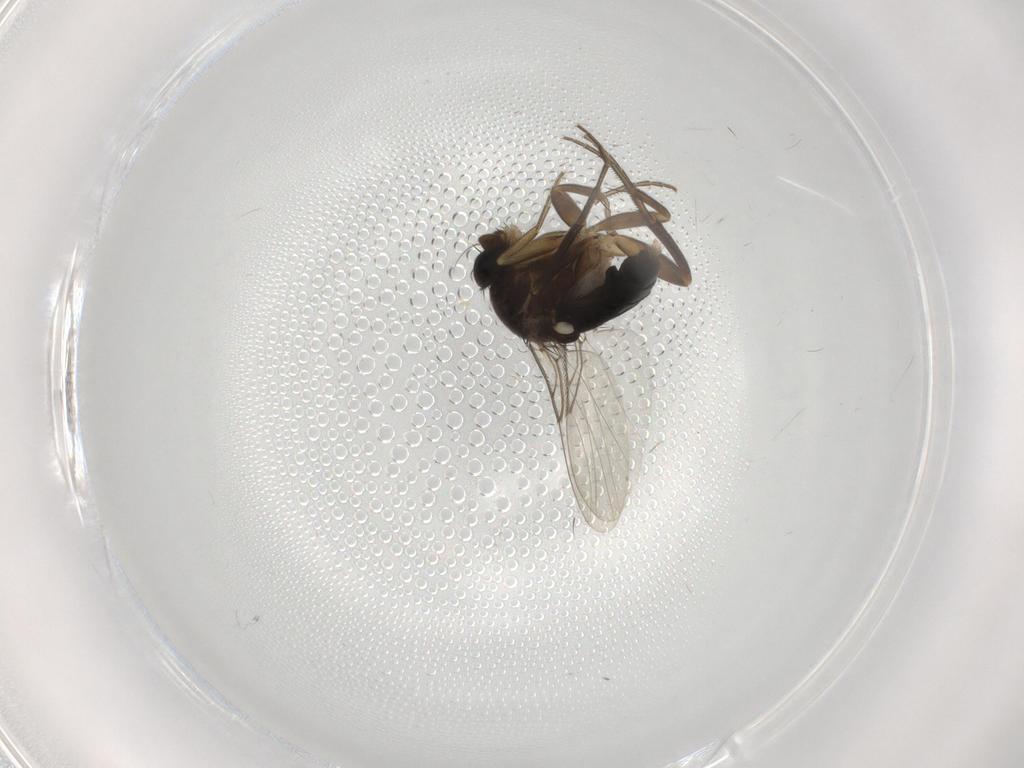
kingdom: Animalia
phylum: Arthropoda
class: Insecta
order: Diptera
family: Phoridae
